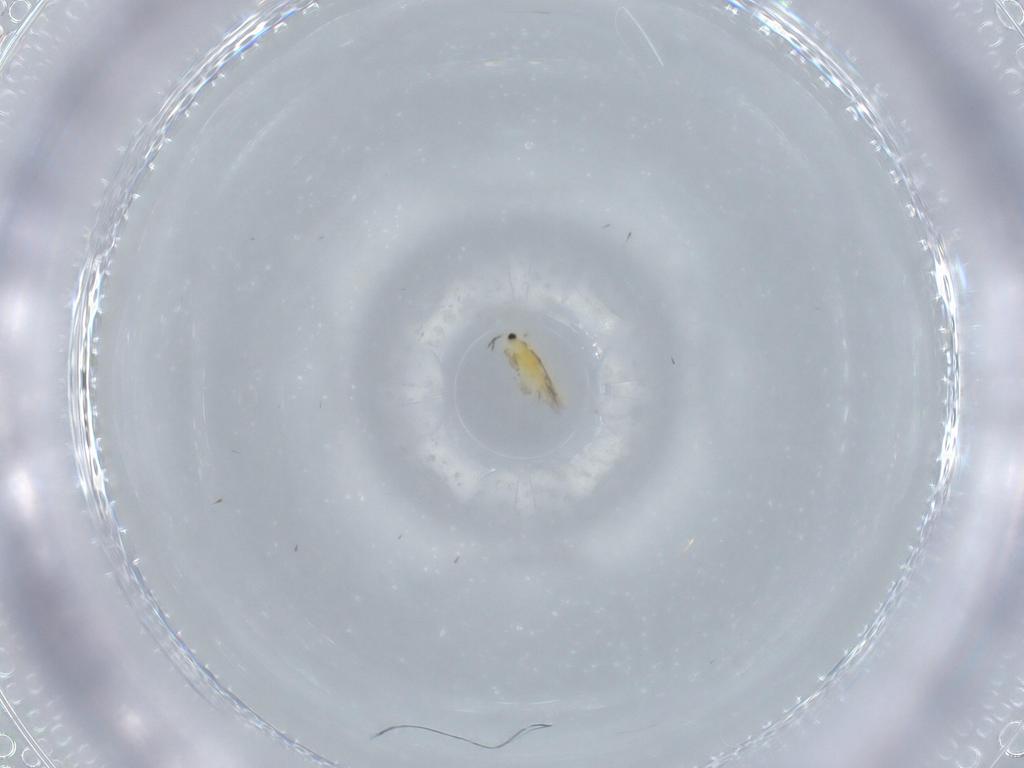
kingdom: Animalia
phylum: Arthropoda
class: Insecta
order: Thysanoptera
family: Thripidae
